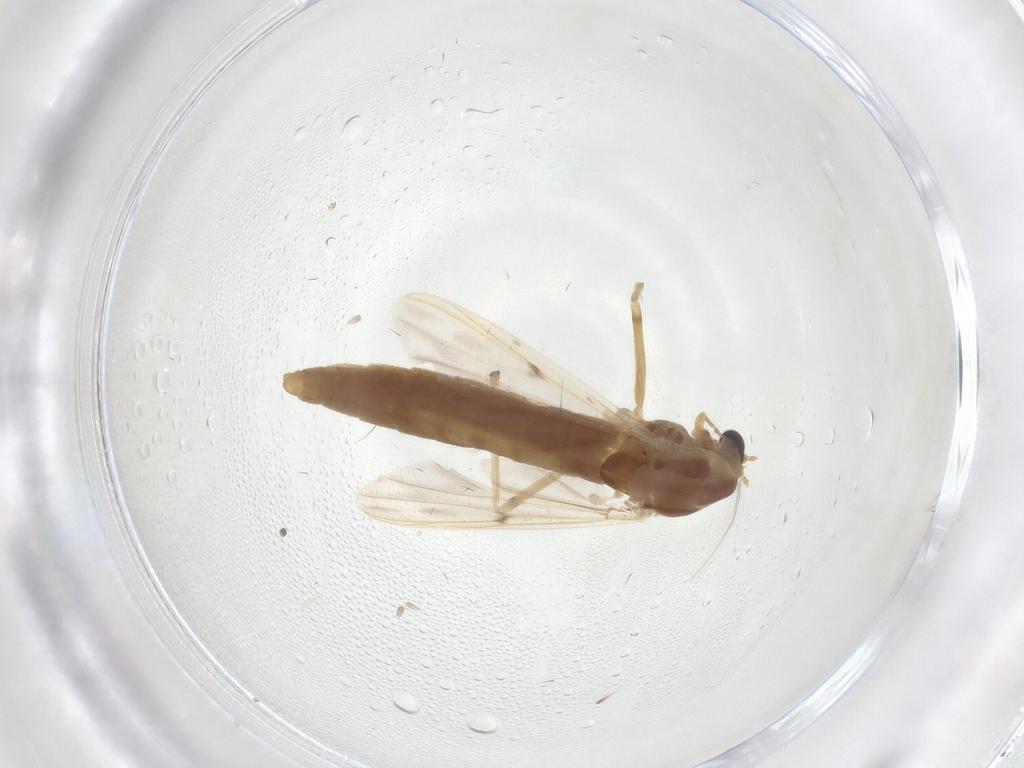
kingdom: Animalia
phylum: Arthropoda
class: Insecta
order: Diptera
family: Chironomidae
